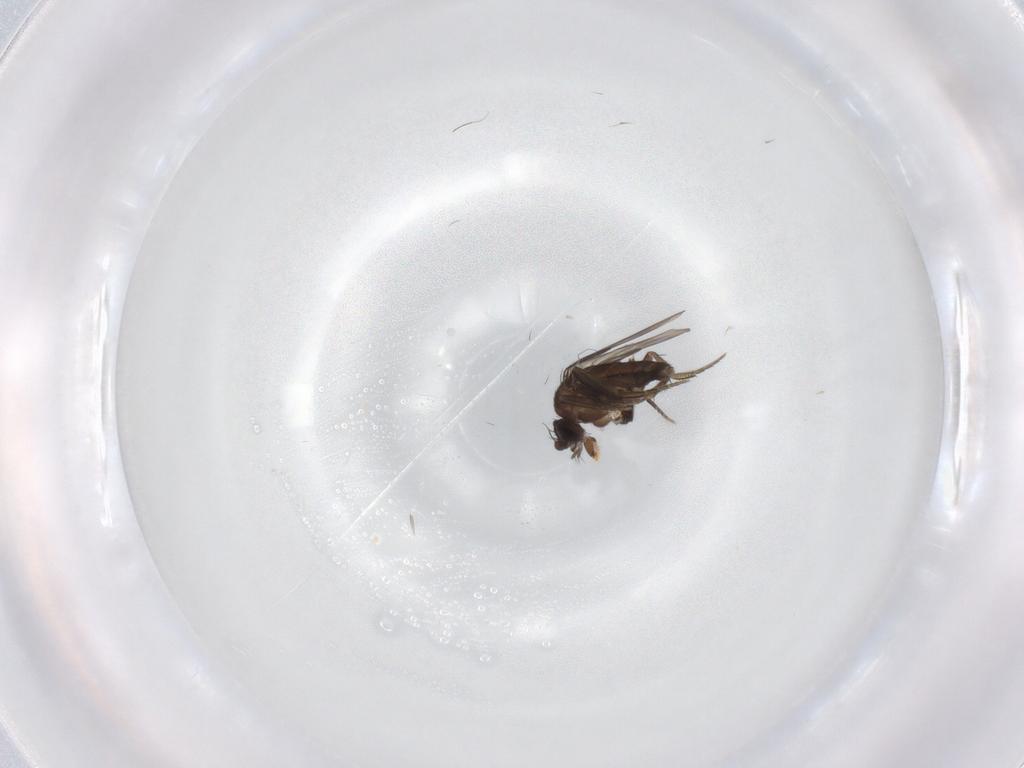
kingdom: Animalia
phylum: Arthropoda
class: Insecta
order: Diptera
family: Phoridae
